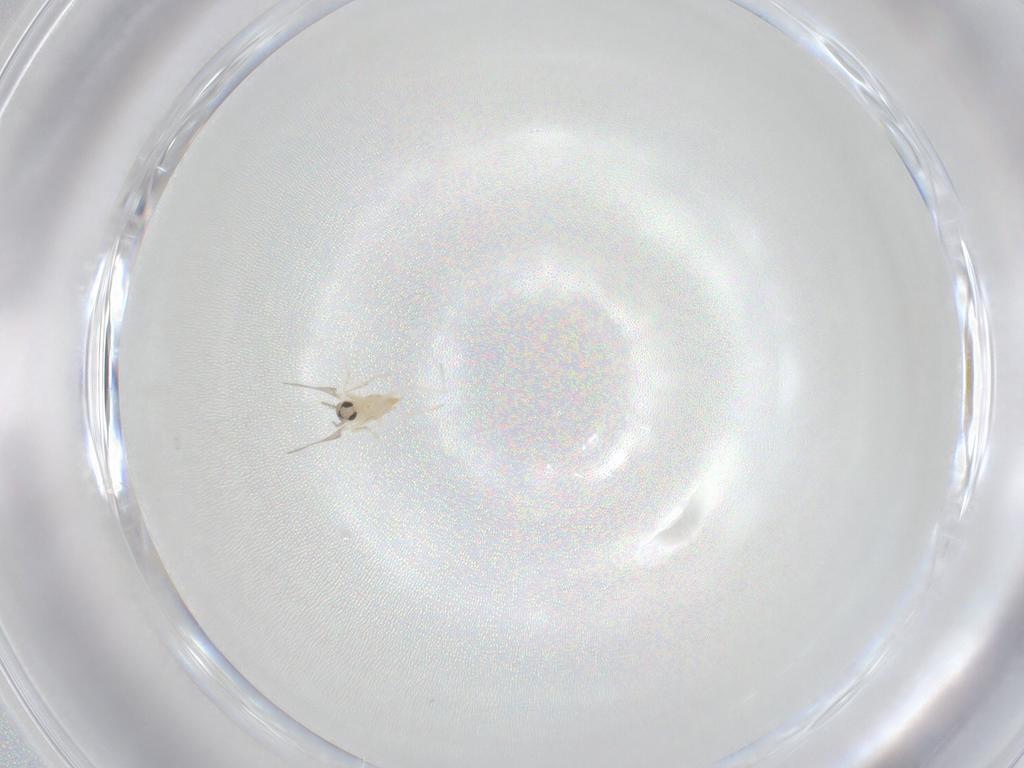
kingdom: Animalia
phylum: Arthropoda
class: Insecta
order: Diptera
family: Cecidomyiidae
